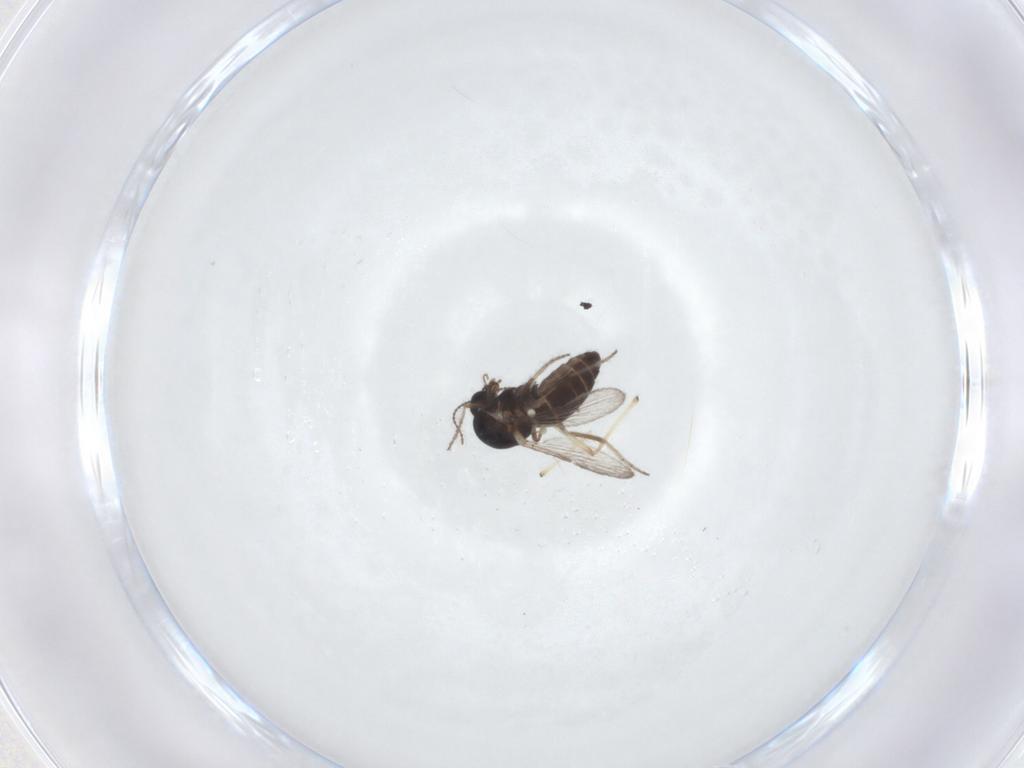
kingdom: Animalia
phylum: Arthropoda
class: Insecta
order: Diptera
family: Ceratopogonidae
